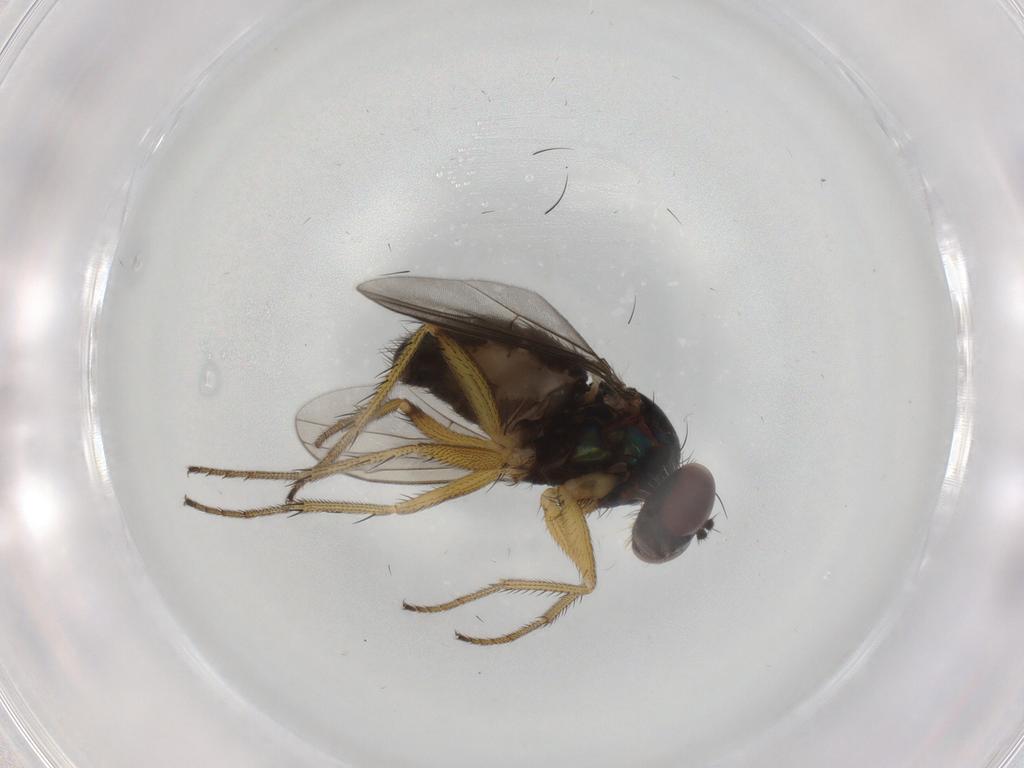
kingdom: Animalia
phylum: Arthropoda
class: Insecta
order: Diptera
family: Dolichopodidae
